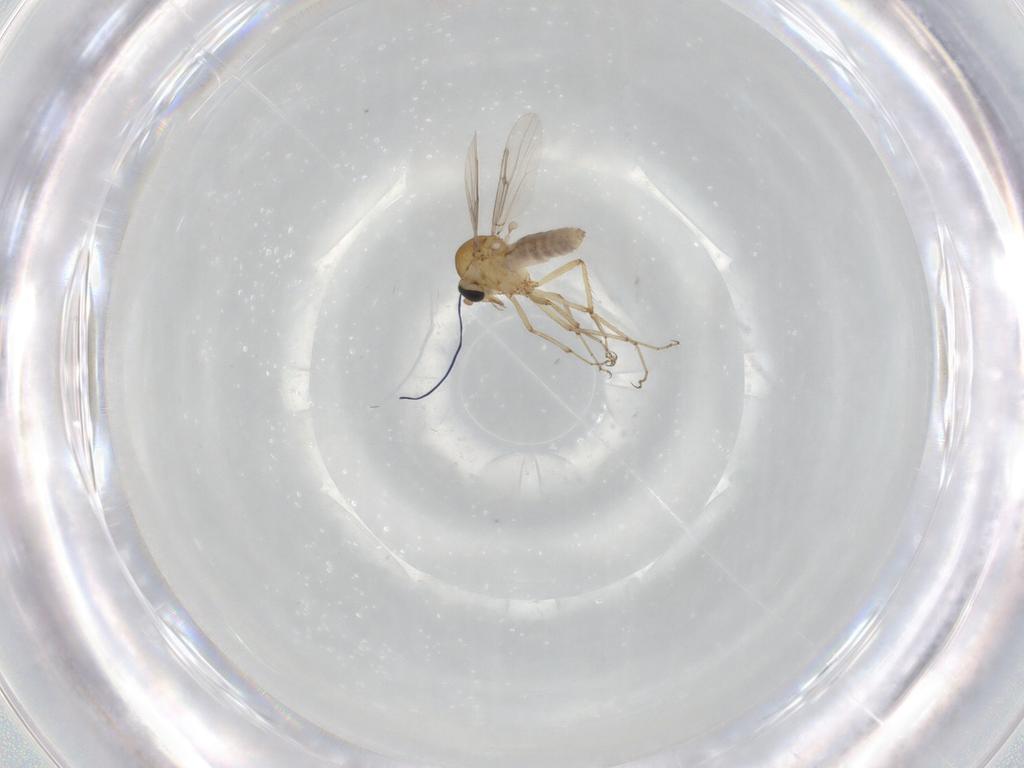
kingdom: Animalia
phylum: Arthropoda
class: Insecta
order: Diptera
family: Ceratopogonidae
